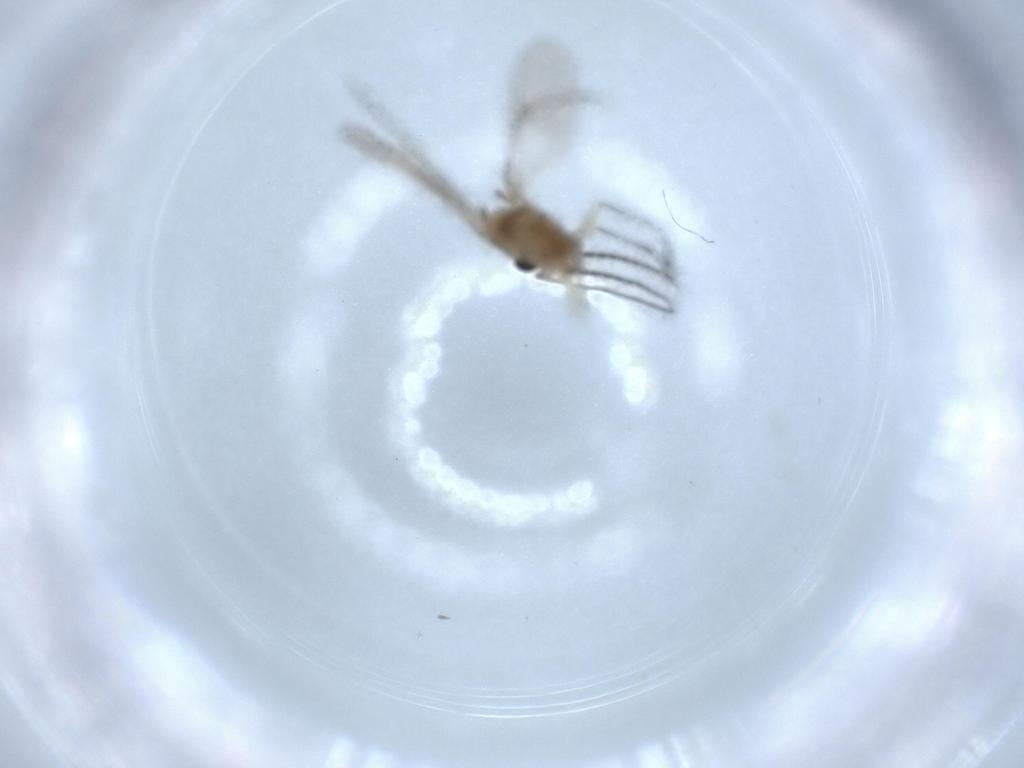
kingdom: Animalia
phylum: Arthropoda
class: Insecta
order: Diptera
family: Sciaridae
